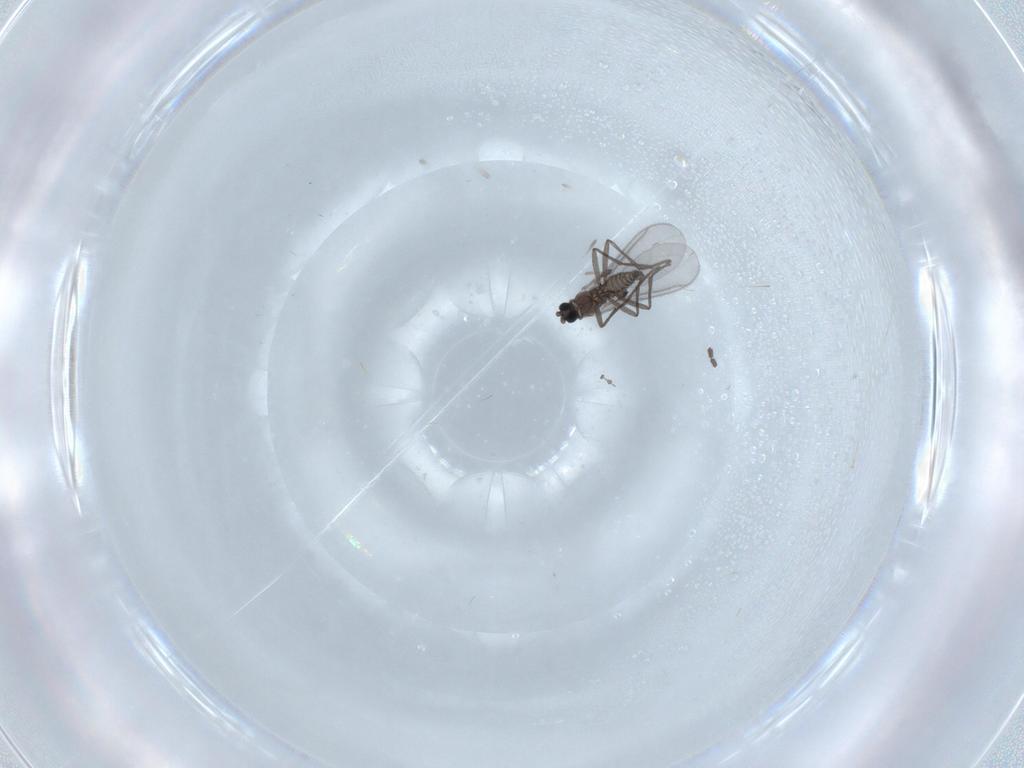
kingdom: Animalia
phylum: Arthropoda
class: Insecta
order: Diptera
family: Sciaridae
